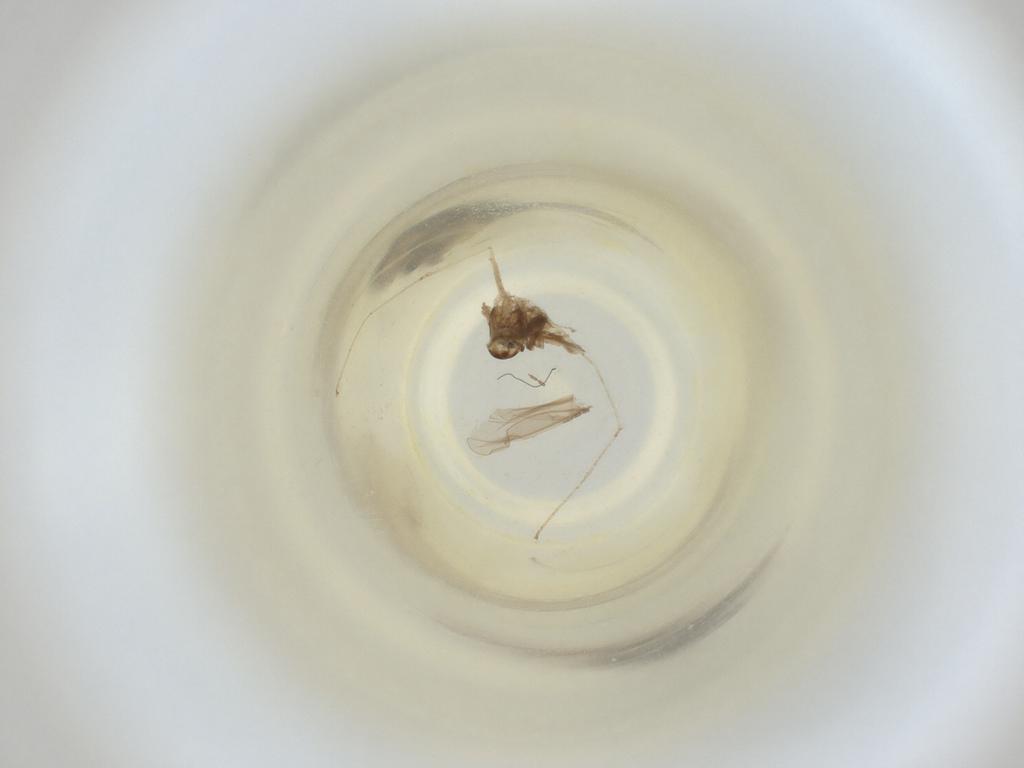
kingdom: Animalia
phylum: Arthropoda
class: Insecta
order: Diptera
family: Cecidomyiidae
